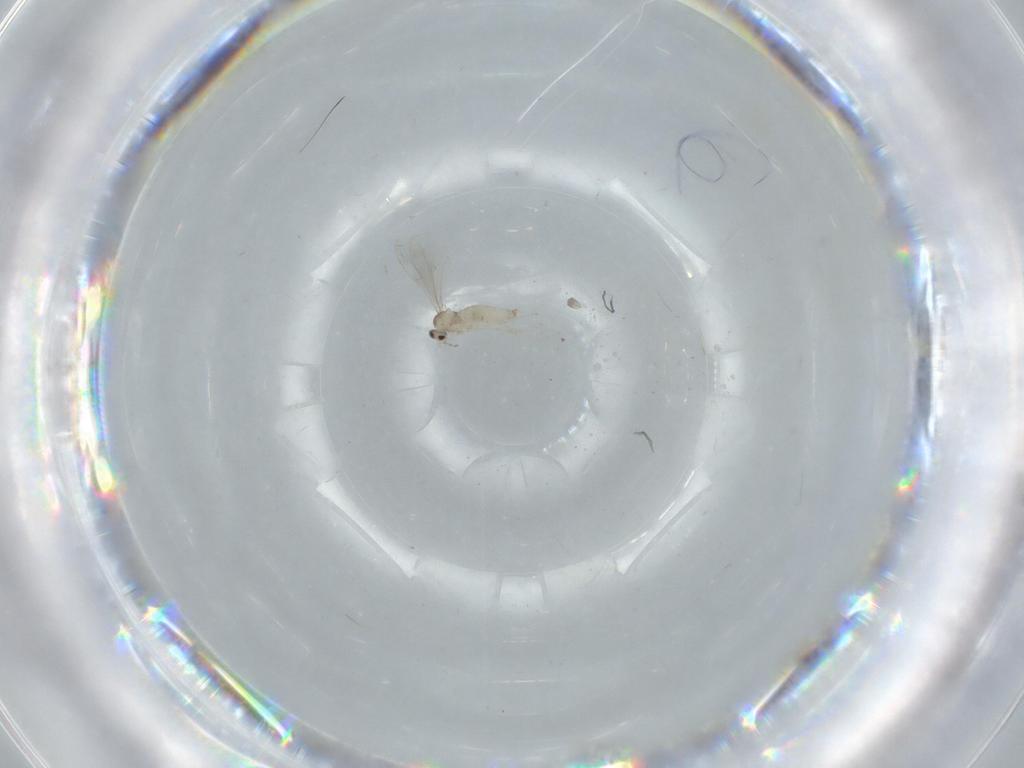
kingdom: Animalia
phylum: Arthropoda
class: Insecta
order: Diptera
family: Cecidomyiidae
